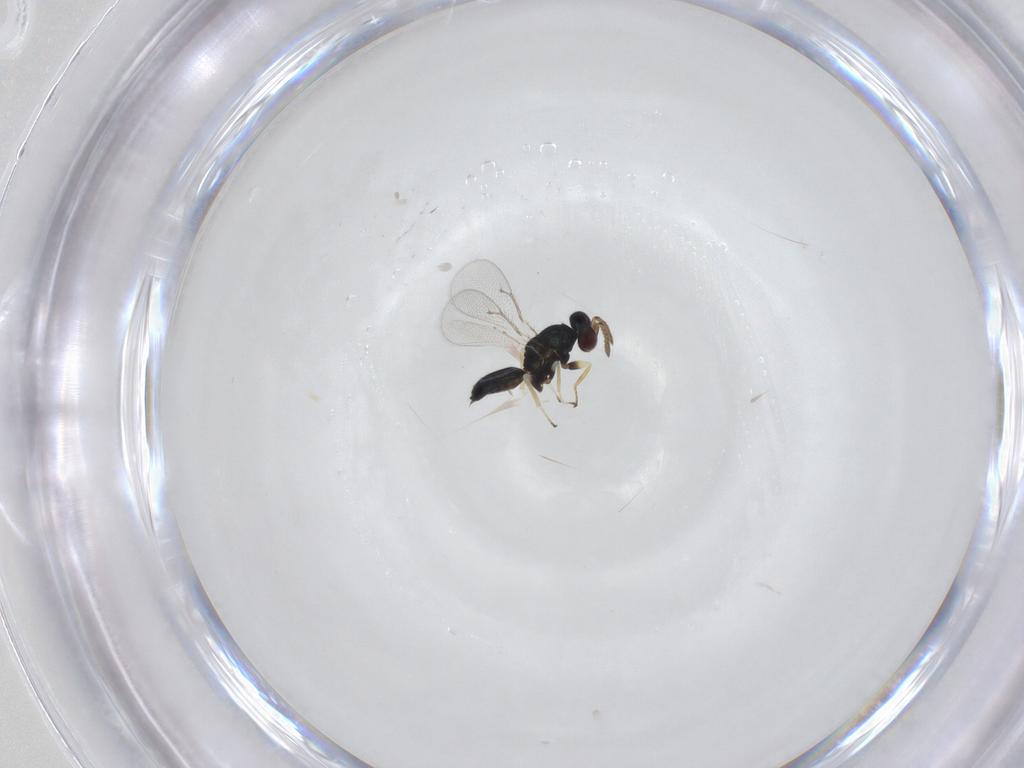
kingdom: Animalia
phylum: Arthropoda
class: Insecta
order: Hymenoptera
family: Eulophidae
